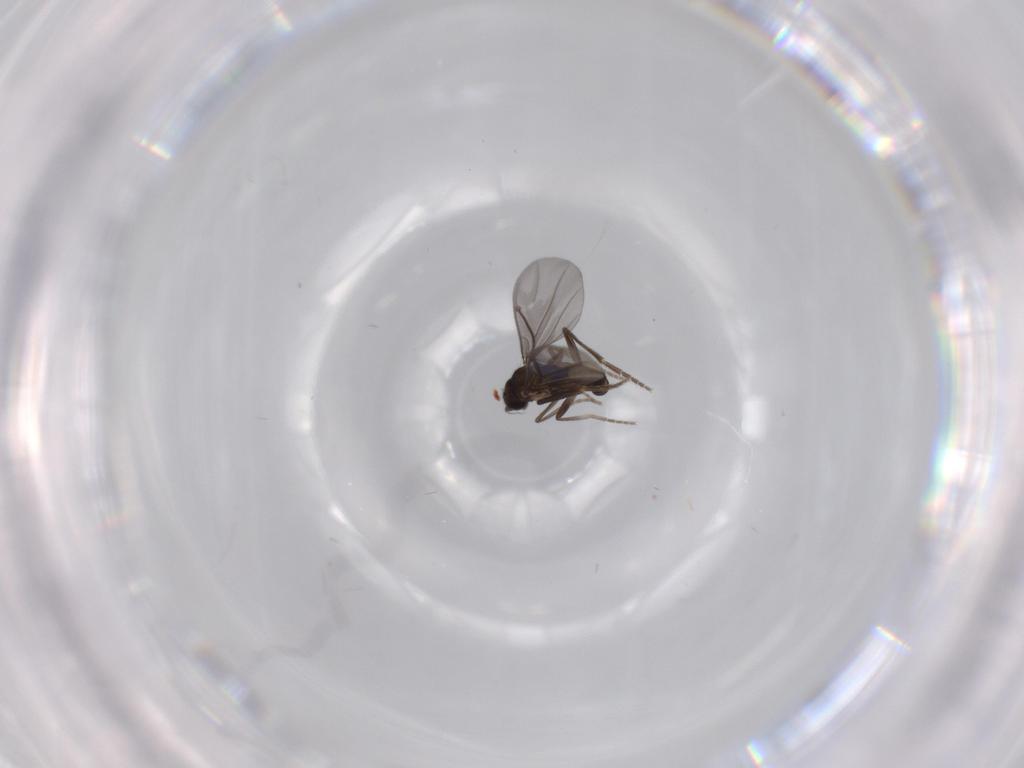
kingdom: Animalia
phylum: Arthropoda
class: Insecta
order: Diptera
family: Phoridae
